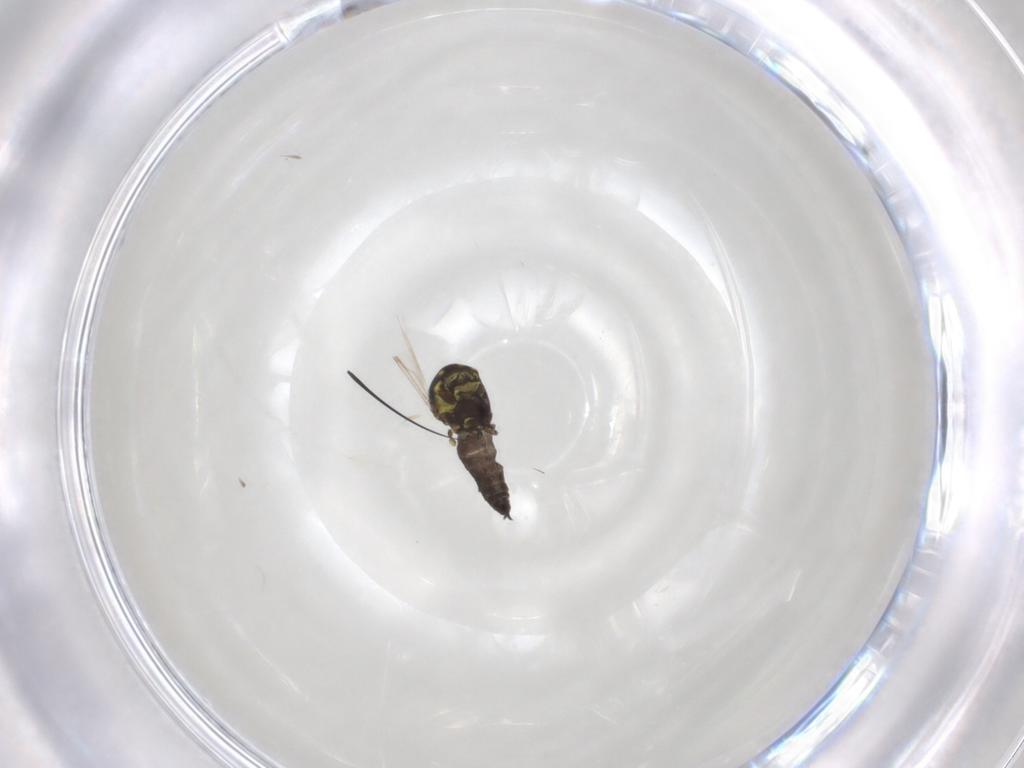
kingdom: Animalia
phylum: Arthropoda
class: Insecta
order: Diptera
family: Ceratopogonidae
